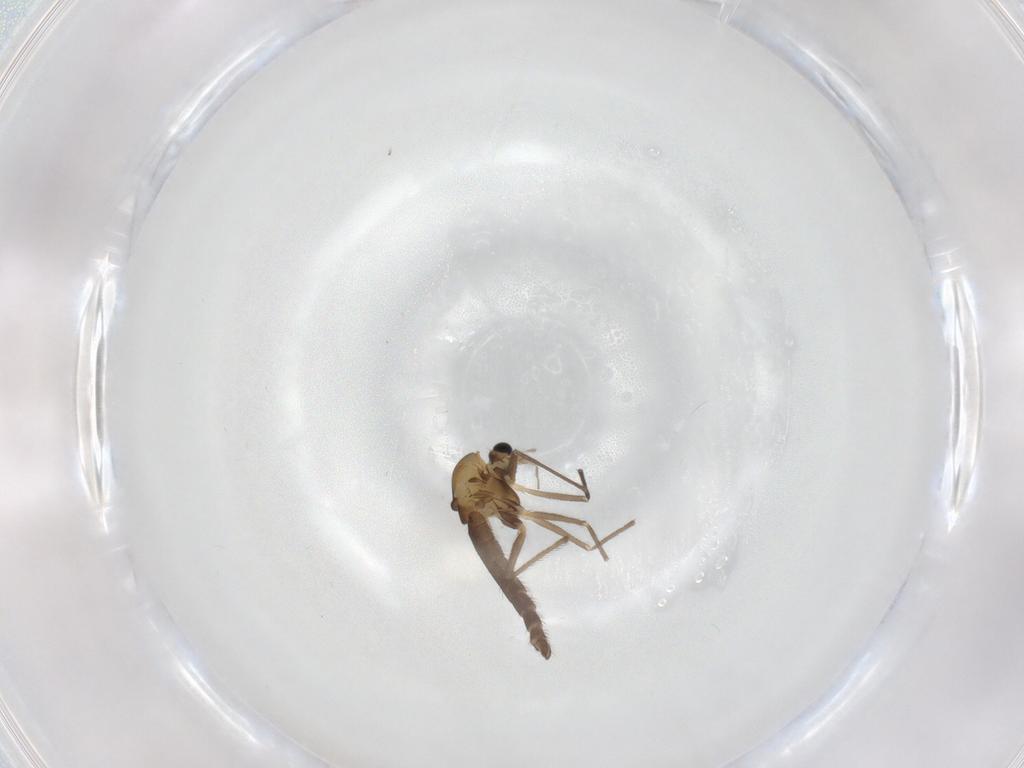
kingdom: Animalia
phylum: Arthropoda
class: Insecta
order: Diptera
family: Chironomidae
